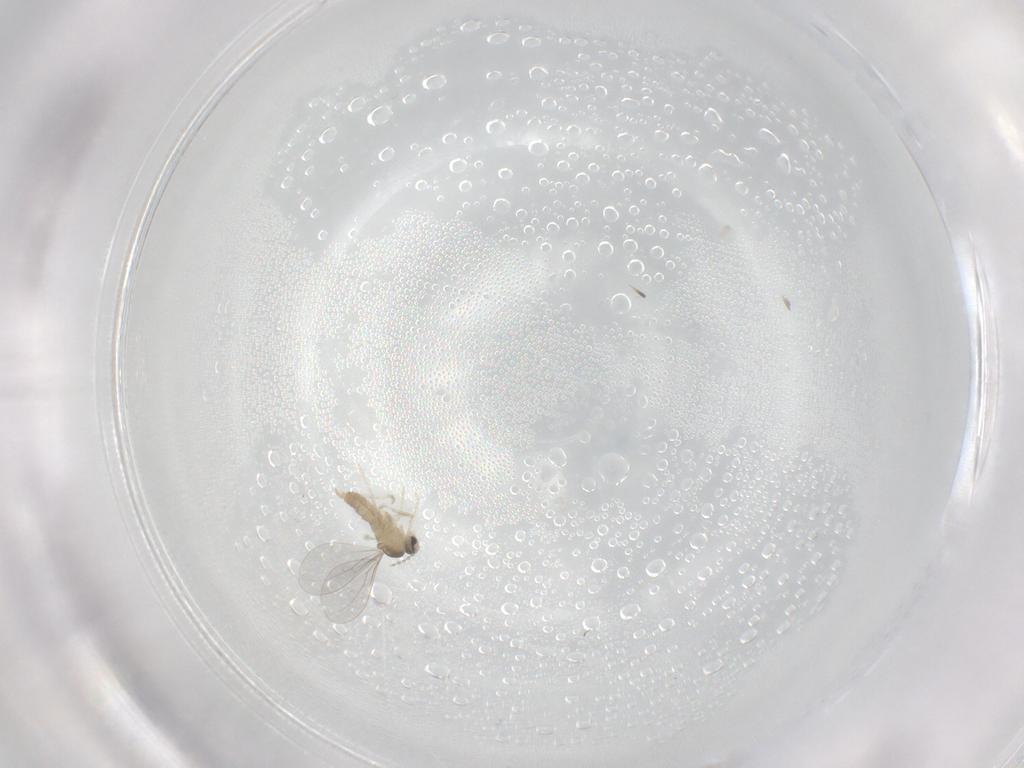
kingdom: Animalia
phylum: Arthropoda
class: Insecta
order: Diptera
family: Cecidomyiidae
